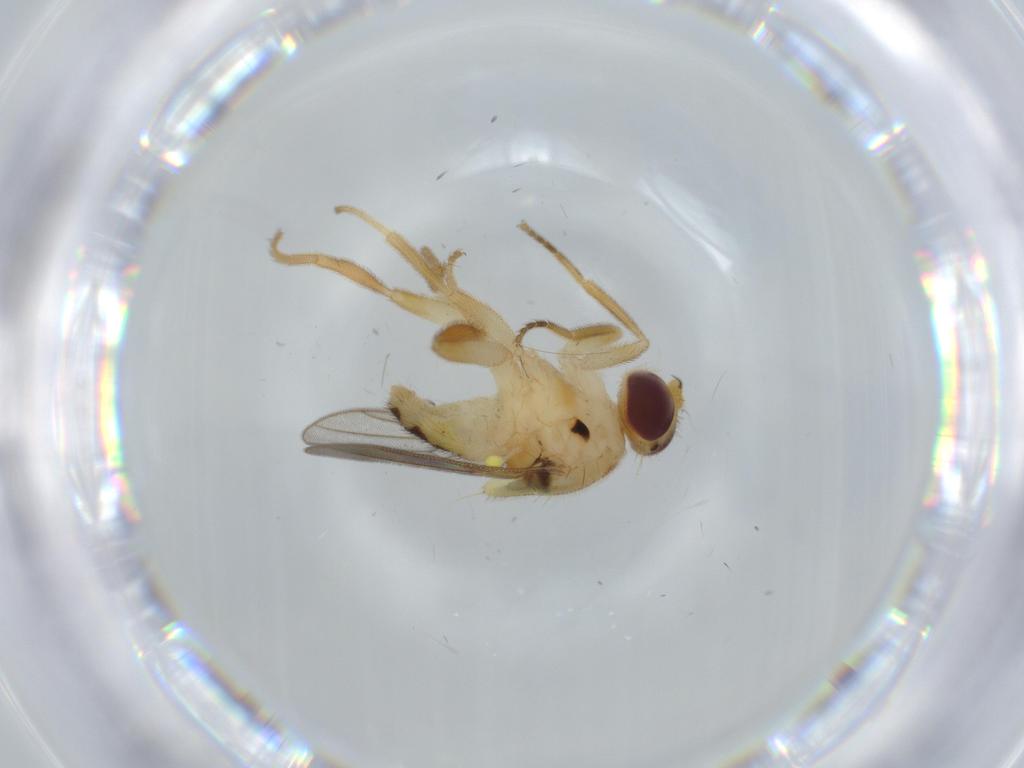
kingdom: Animalia
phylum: Arthropoda
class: Insecta
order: Diptera
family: Chloropidae
